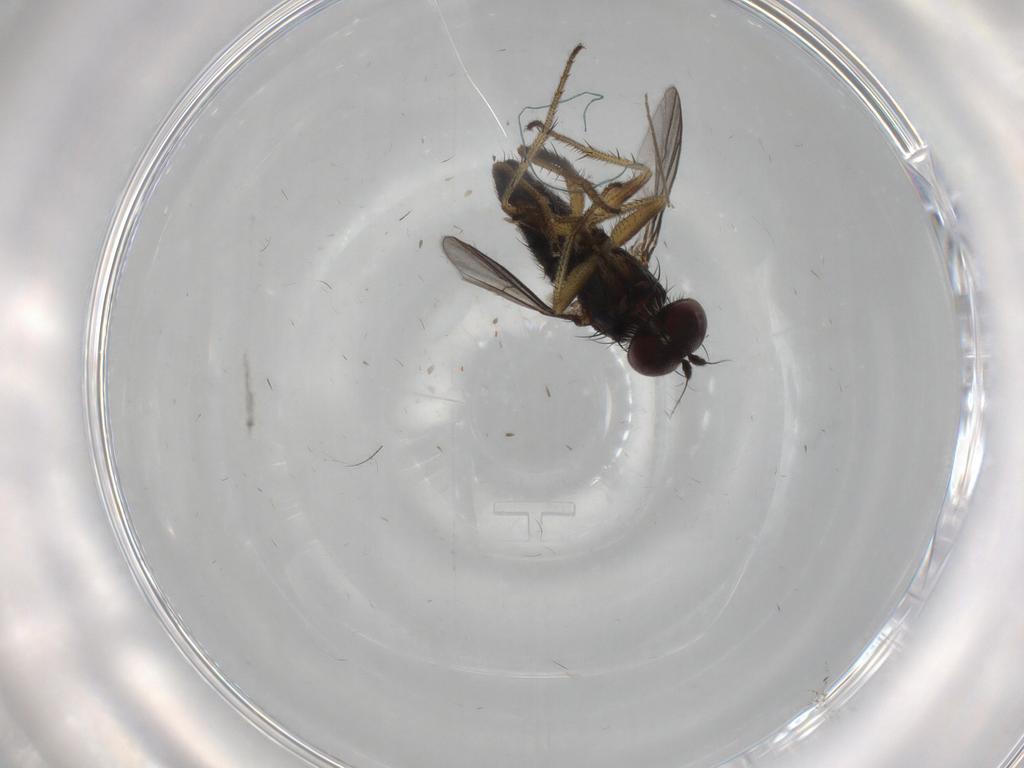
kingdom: Animalia
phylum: Arthropoda
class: Insecta
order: Diptera
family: Dolichopodidae
